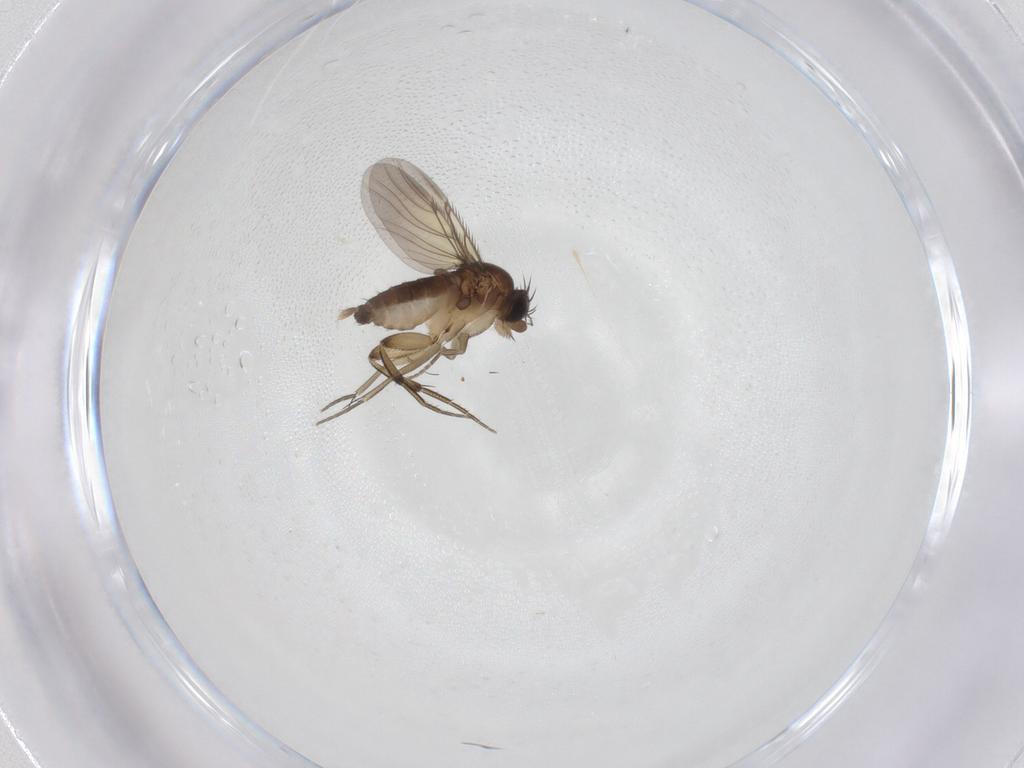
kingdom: Animalia
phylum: Arthropoda
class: Insecta
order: Diptera
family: Phoridae
